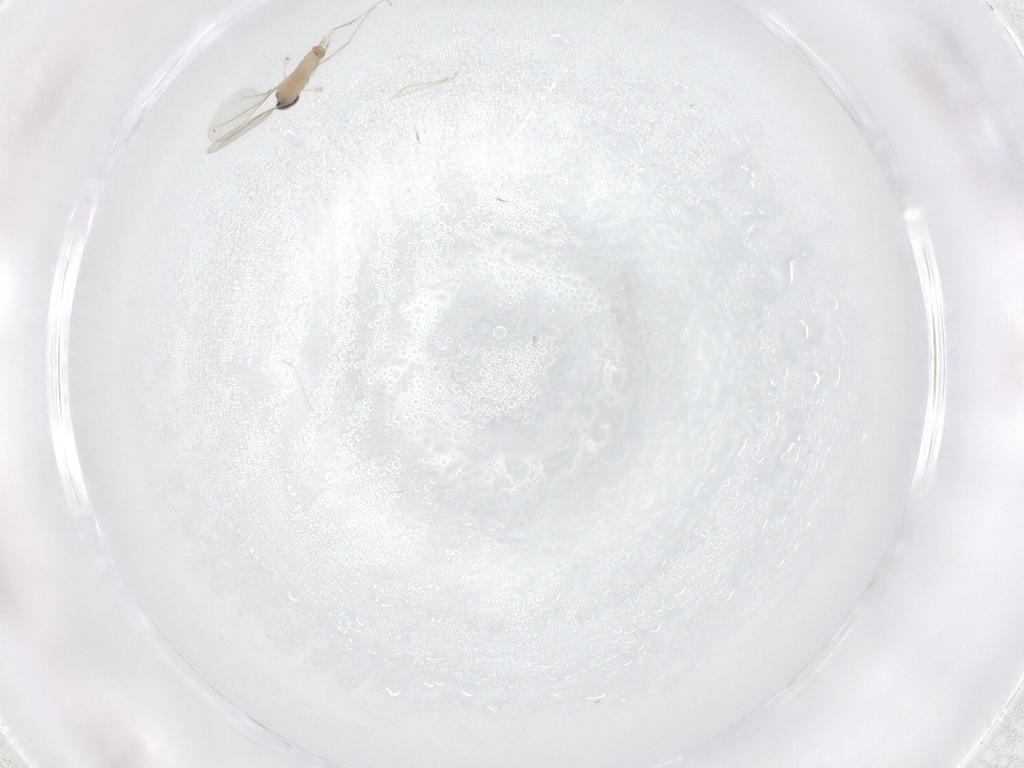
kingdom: Animalia
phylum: Arthropoda
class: Insecta
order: Diptera
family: Cecidomyiidae
